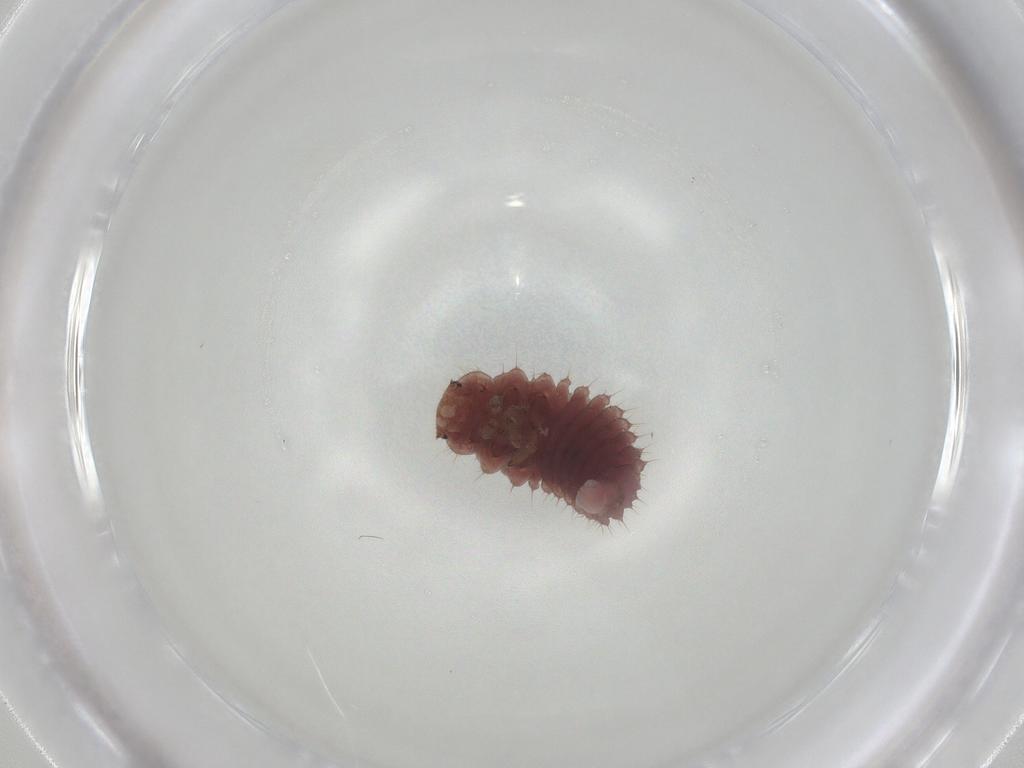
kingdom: Animalia
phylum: Arthropoda
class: Insecta
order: Coleoptera
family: Coccinellidae
